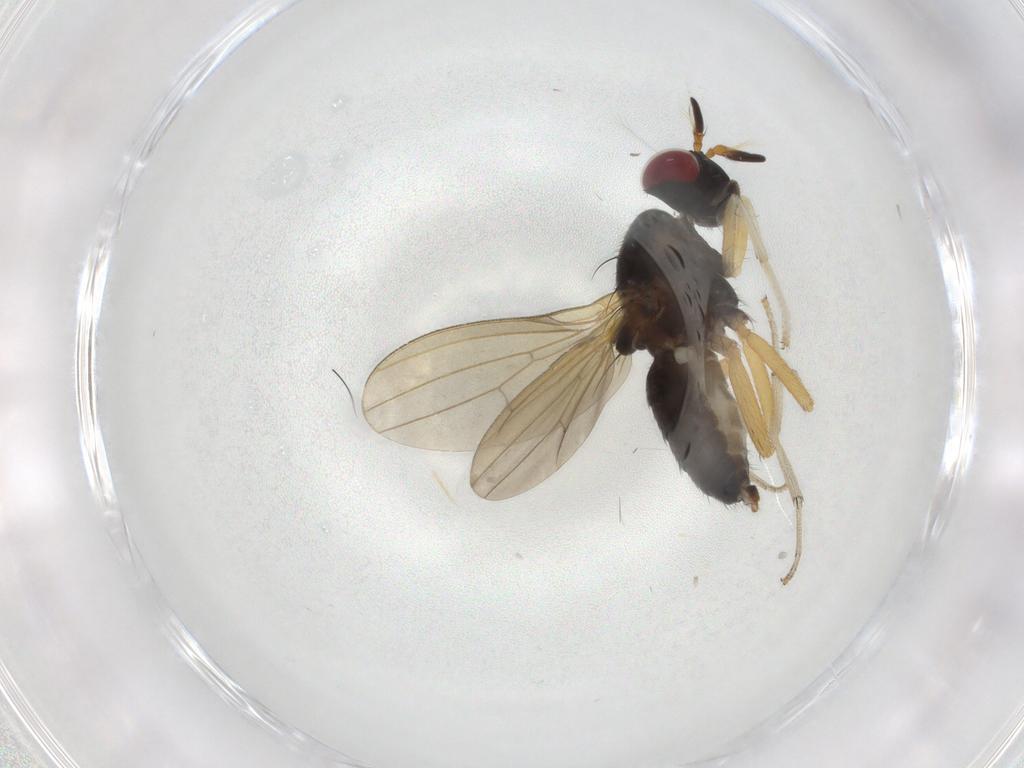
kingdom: Animalia
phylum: Arthropoda
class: Insecta
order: Diptera
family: Lauxaniidae
